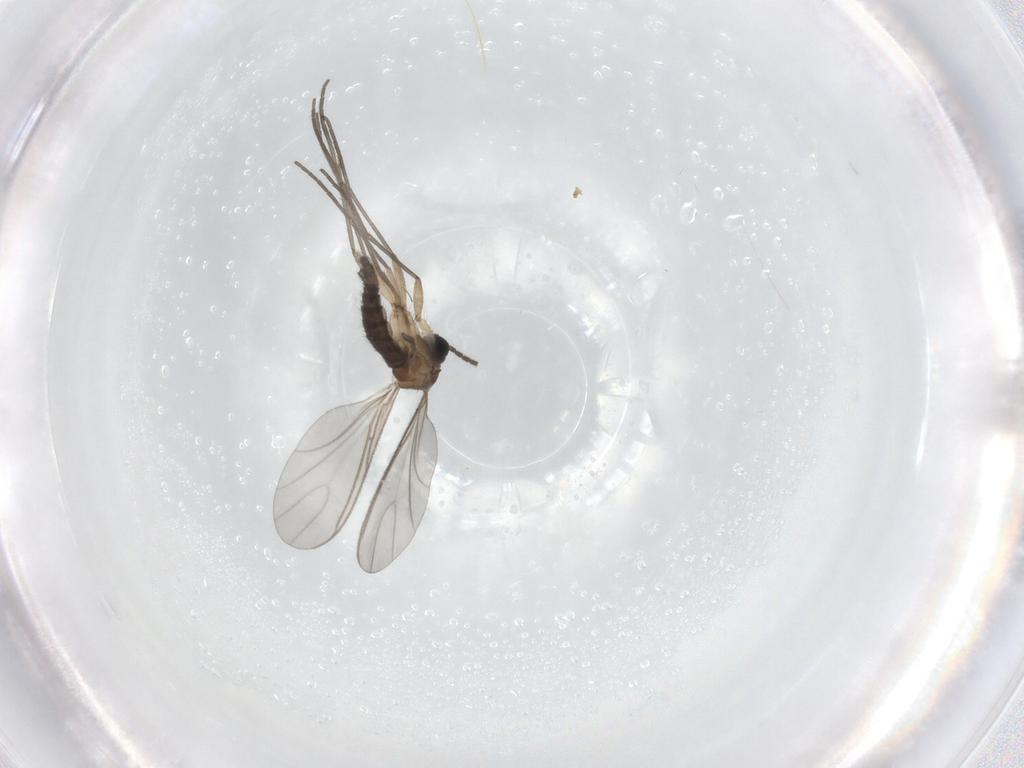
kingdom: Animalia
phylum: Arthropoda
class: Insecta
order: Diptera
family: Sciaridae
